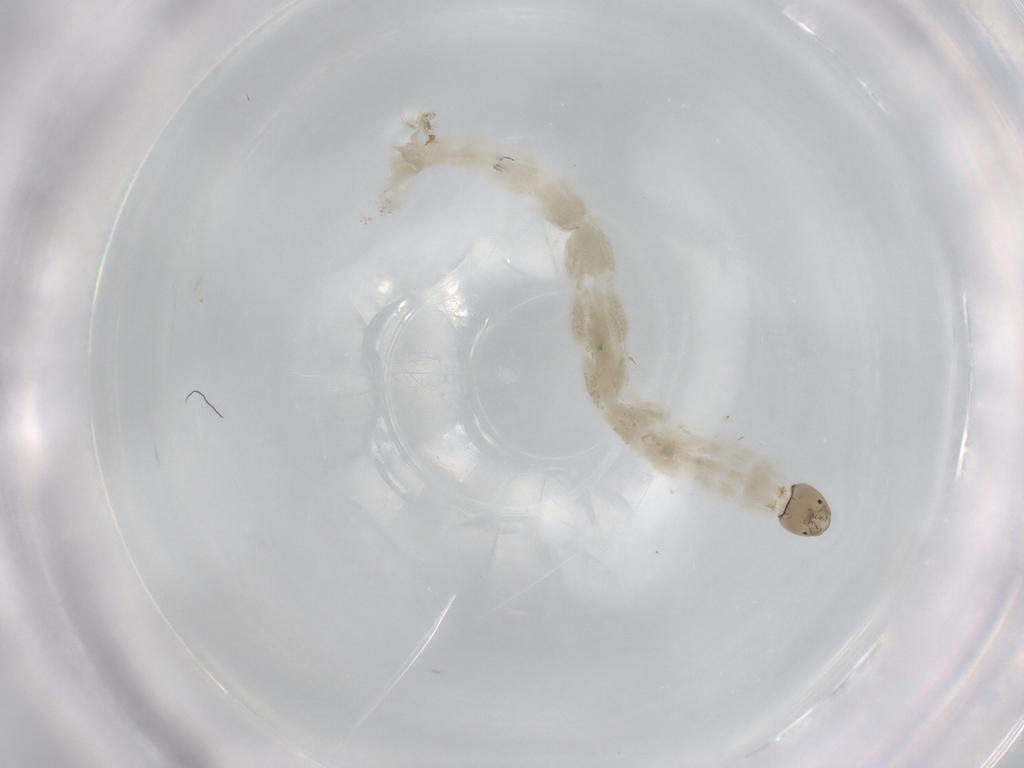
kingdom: Animalia
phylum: Arthropoda
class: Insecta
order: Diptera
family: Chironomidae
